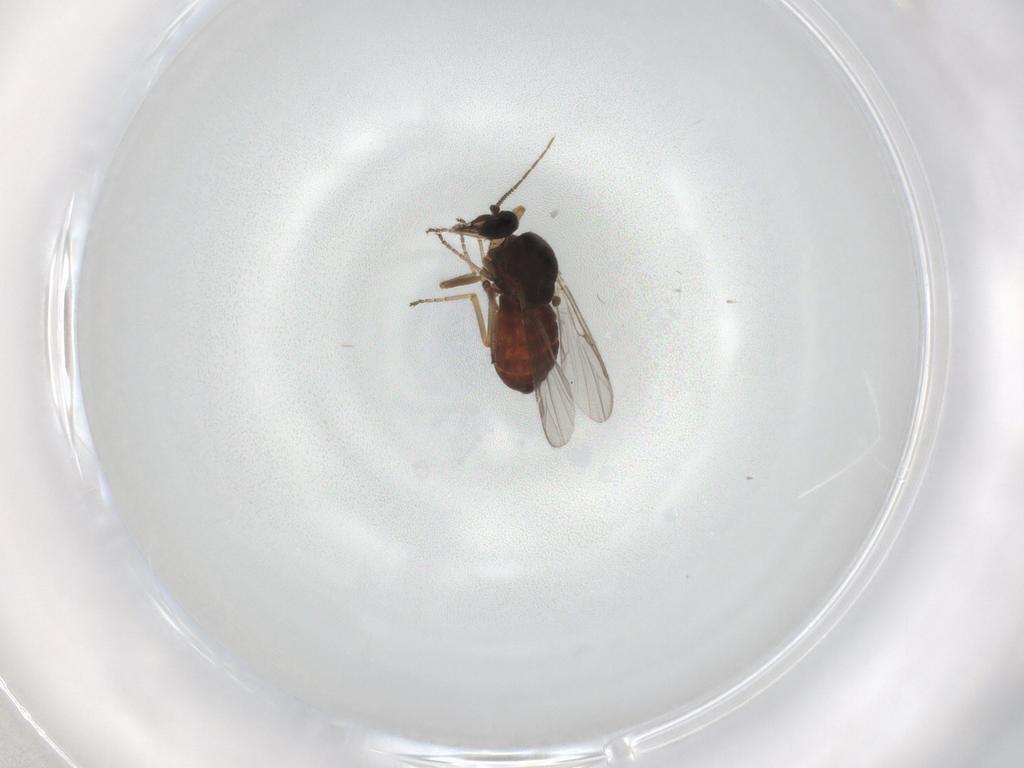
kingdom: Animalia
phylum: Arthropoda
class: Insecta
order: Diptera
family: Ceratopogonidae
